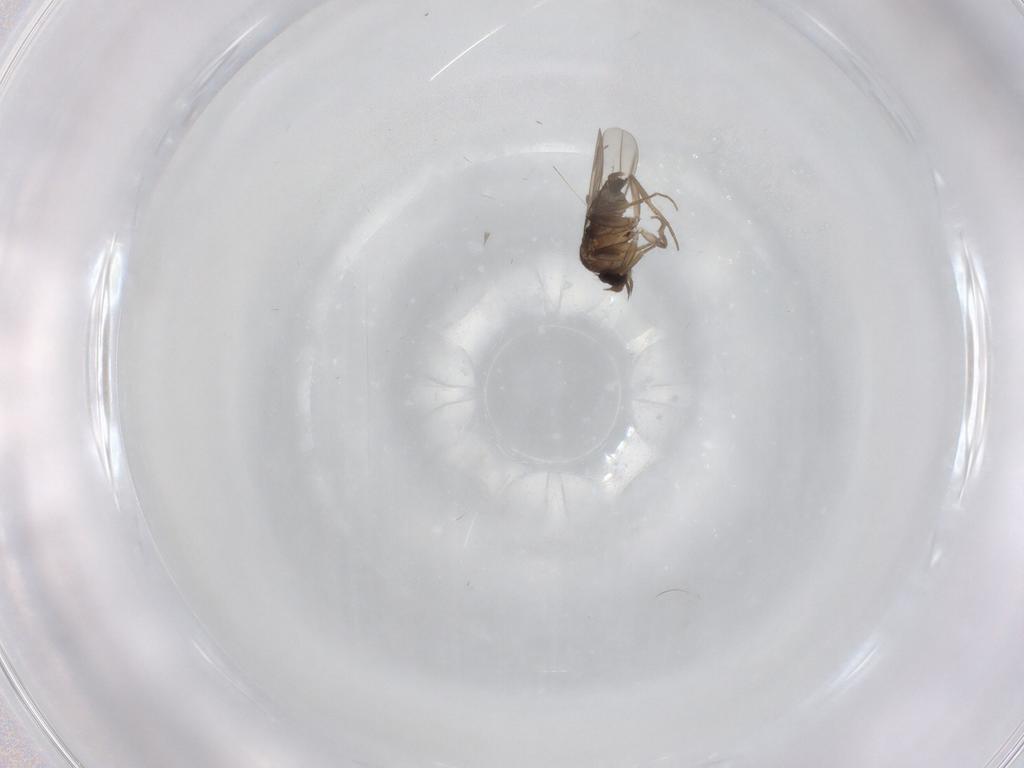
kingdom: Animalia
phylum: Arthropoda
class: Insecta
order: Diptera
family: Phoridae
